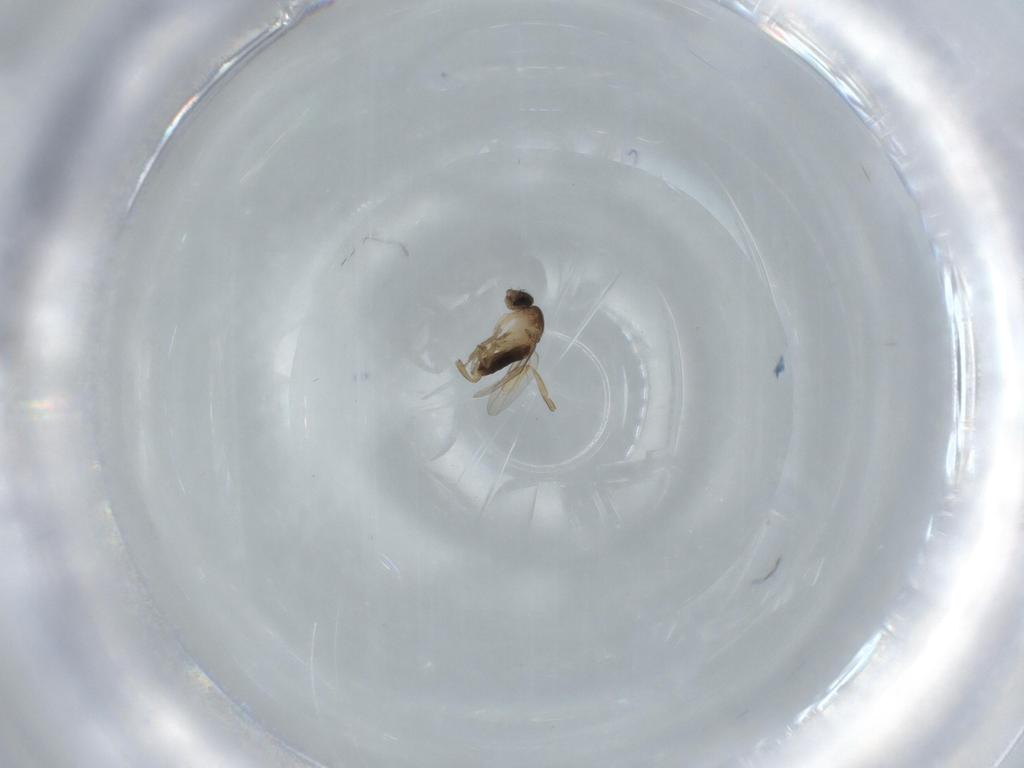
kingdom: Animalia
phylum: Arthropoda
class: Insecta
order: Diptera
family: Phoridae
